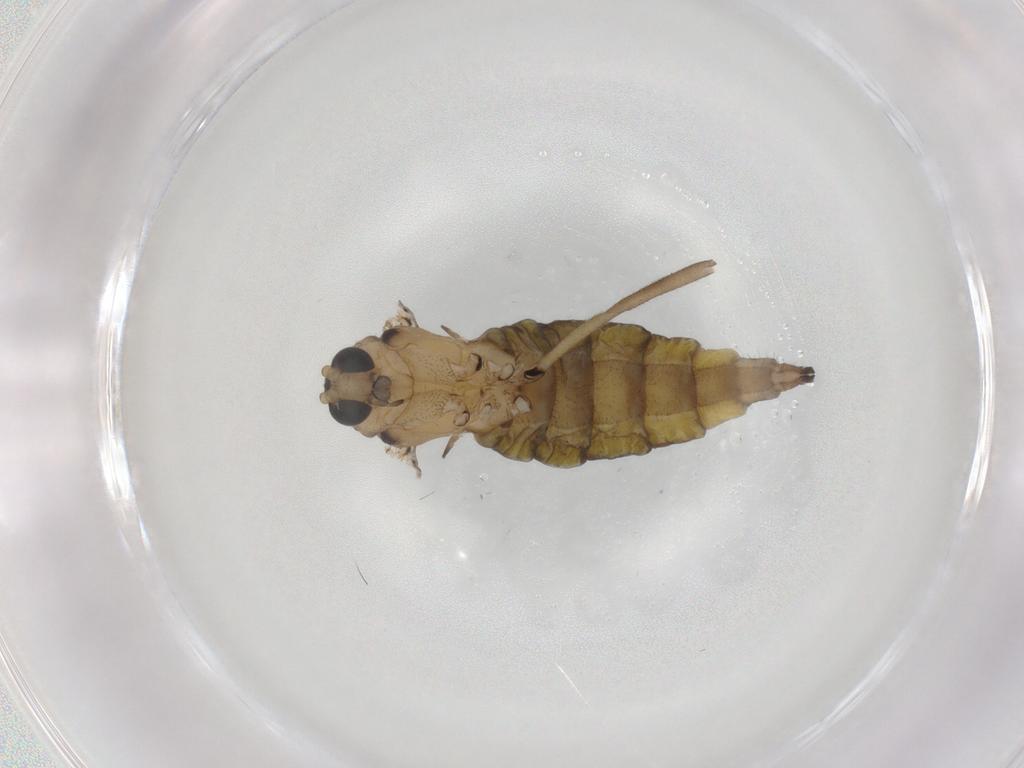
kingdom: Animalia
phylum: Arthropoda
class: Insecta
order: Diptera
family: Sciaridae
